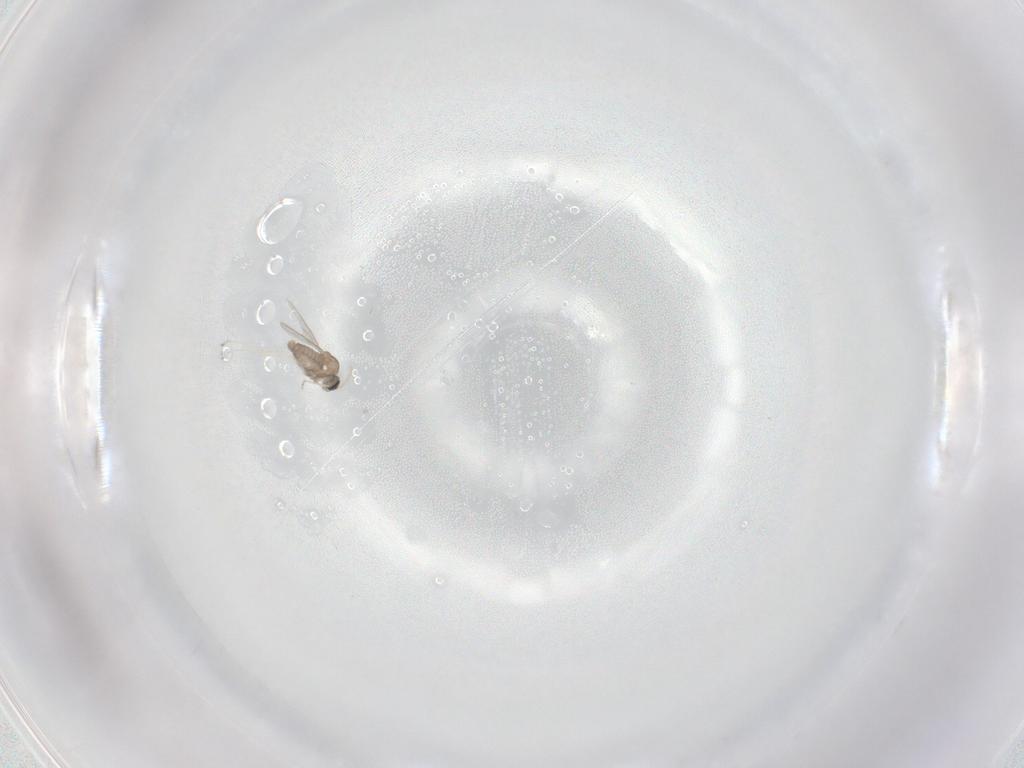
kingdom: Animalia
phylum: Arthropoda
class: Insecta
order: Diptera
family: Cecidomyiidae
